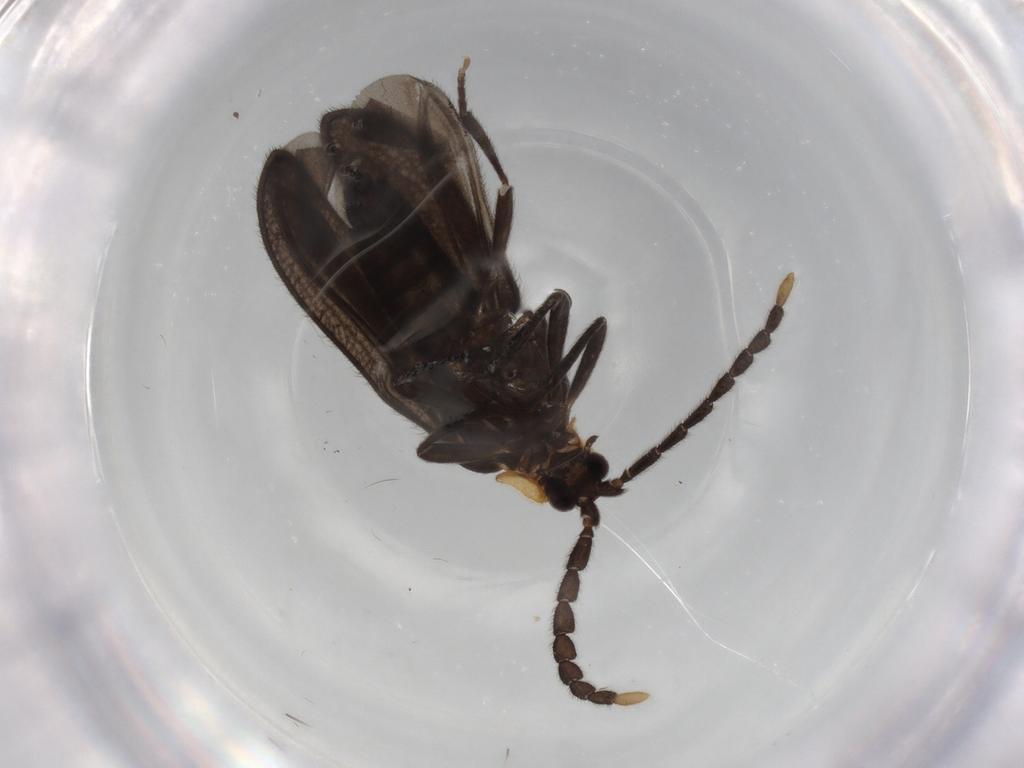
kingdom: Animalia
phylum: Arthropoda
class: Insecta
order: Coleoptera
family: Lycidae
